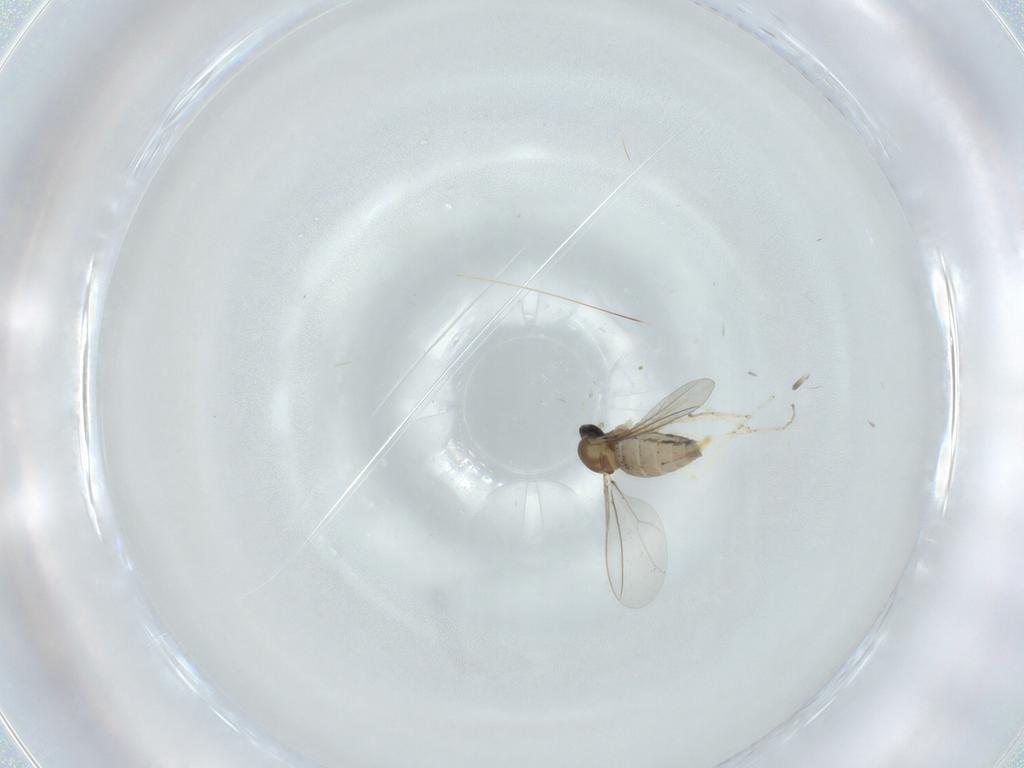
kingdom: Animalia
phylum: Arthropoda
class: Insecta
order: Diptera
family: Cecidomyiidae
